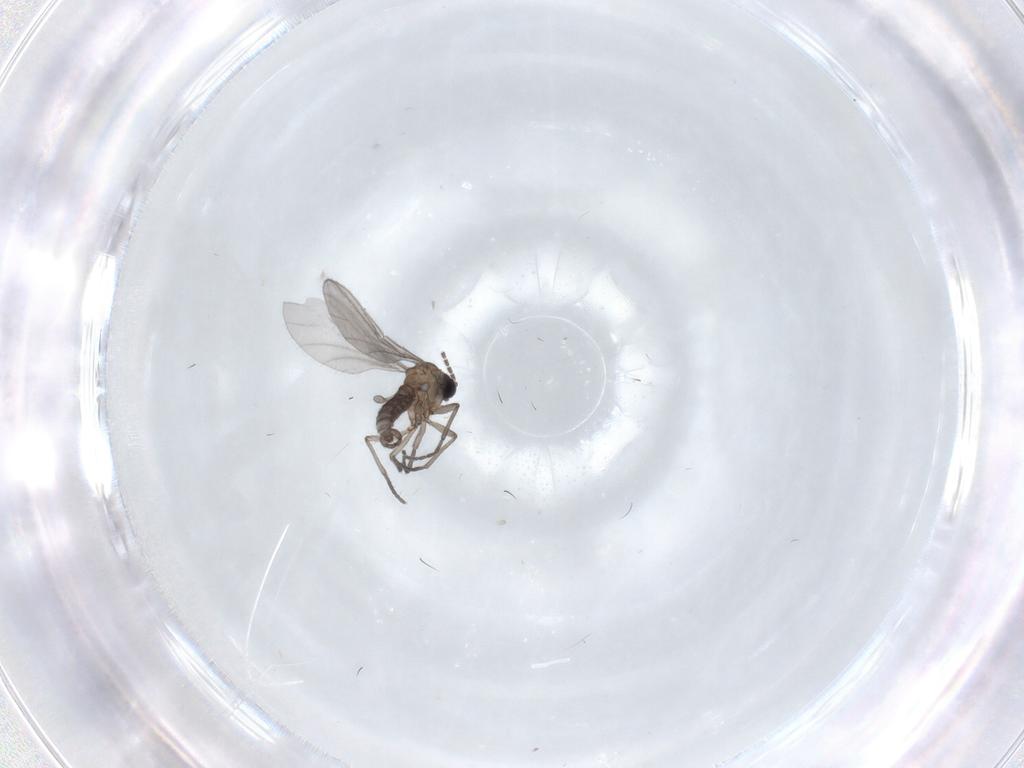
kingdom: Animalia
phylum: Arthropoda
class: Insecta
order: Diptera
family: Sciaridae
